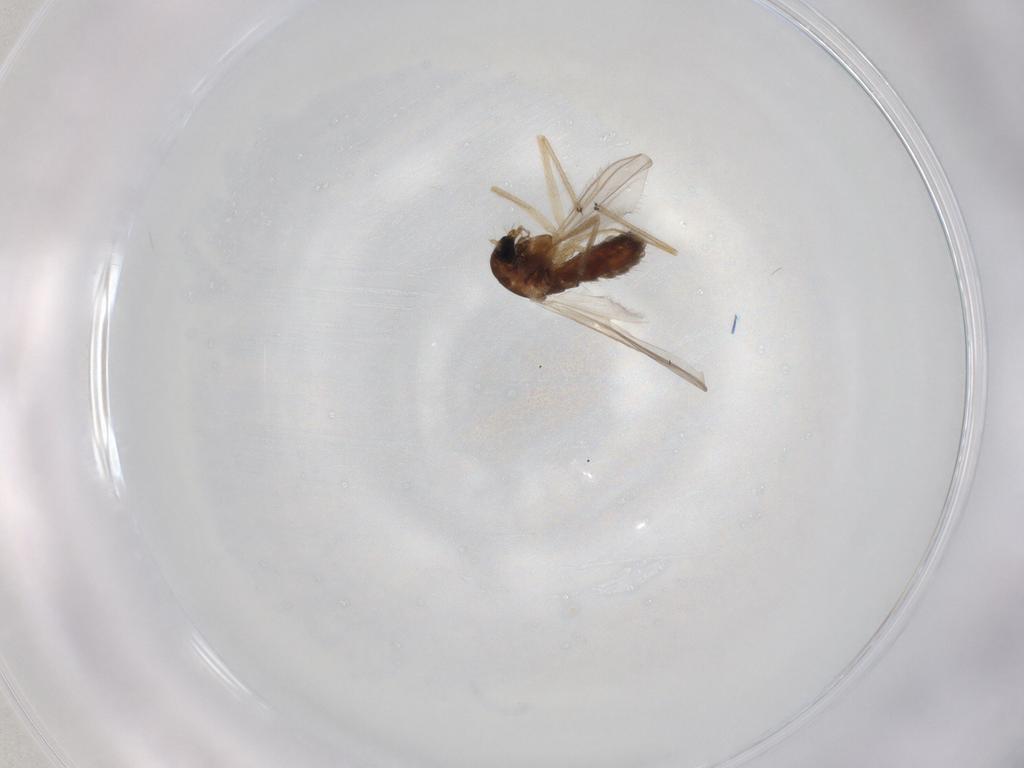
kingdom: Animalia
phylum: Arthropoda
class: Insecta
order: Diptera
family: Chironomidae
